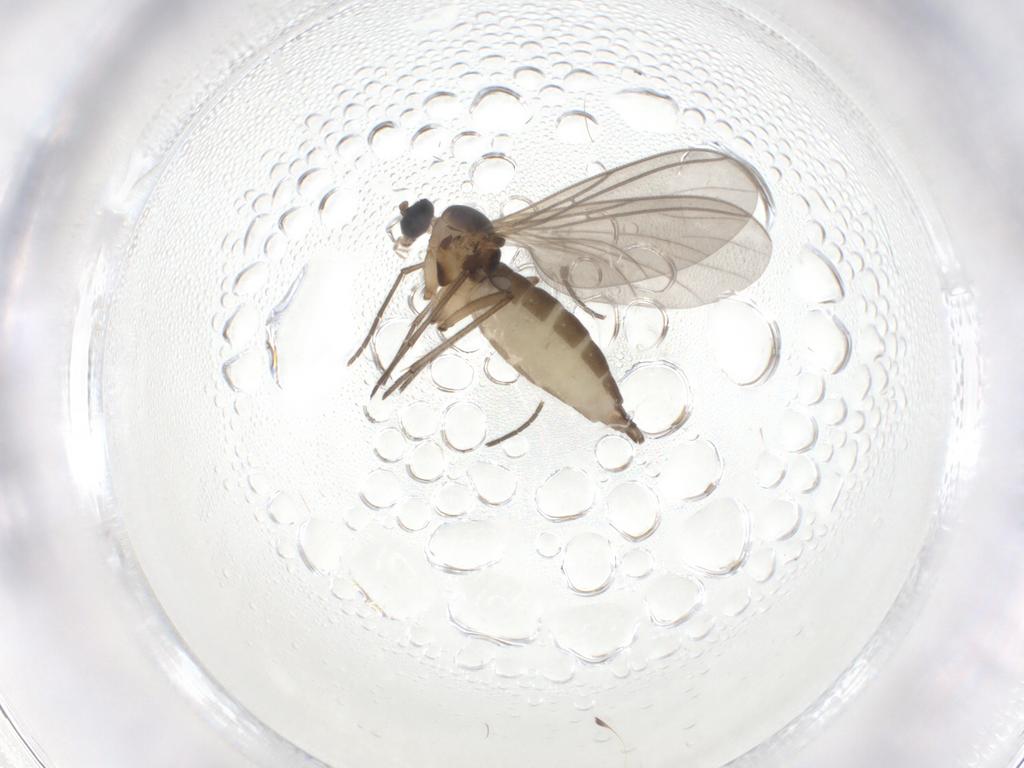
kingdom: Animalia
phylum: Arthropoda
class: Insecta
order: Diptera
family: Sciaridae
